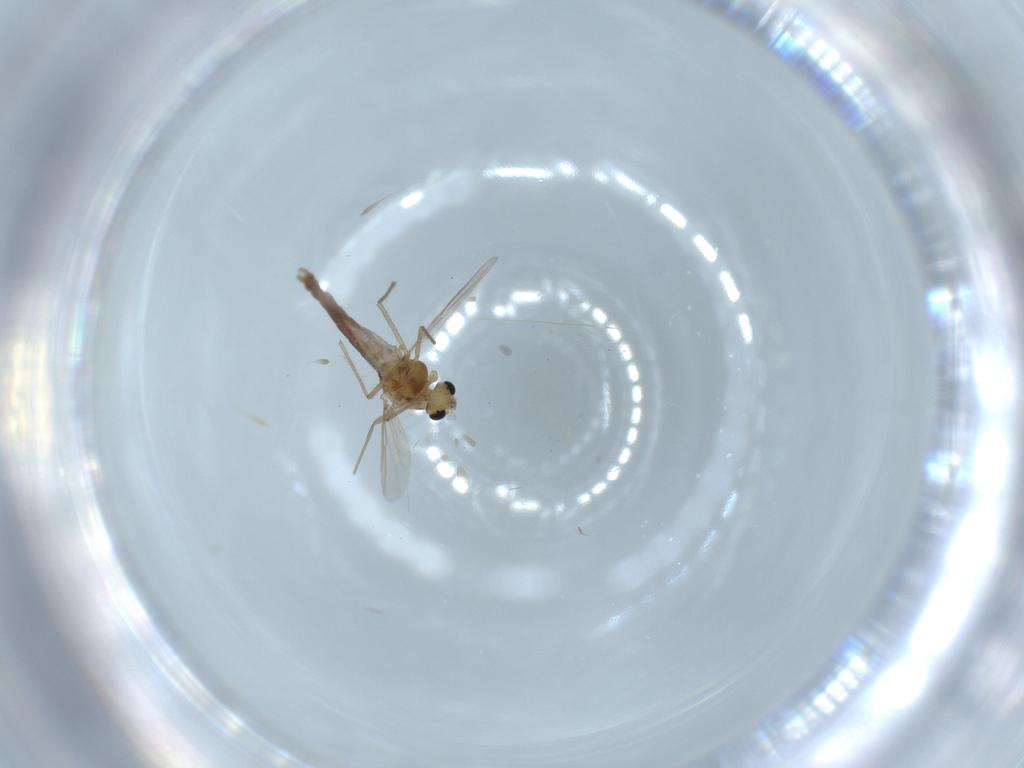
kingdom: Animalia
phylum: Arthropoda
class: Insecta
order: Diptera
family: Chironomidae
